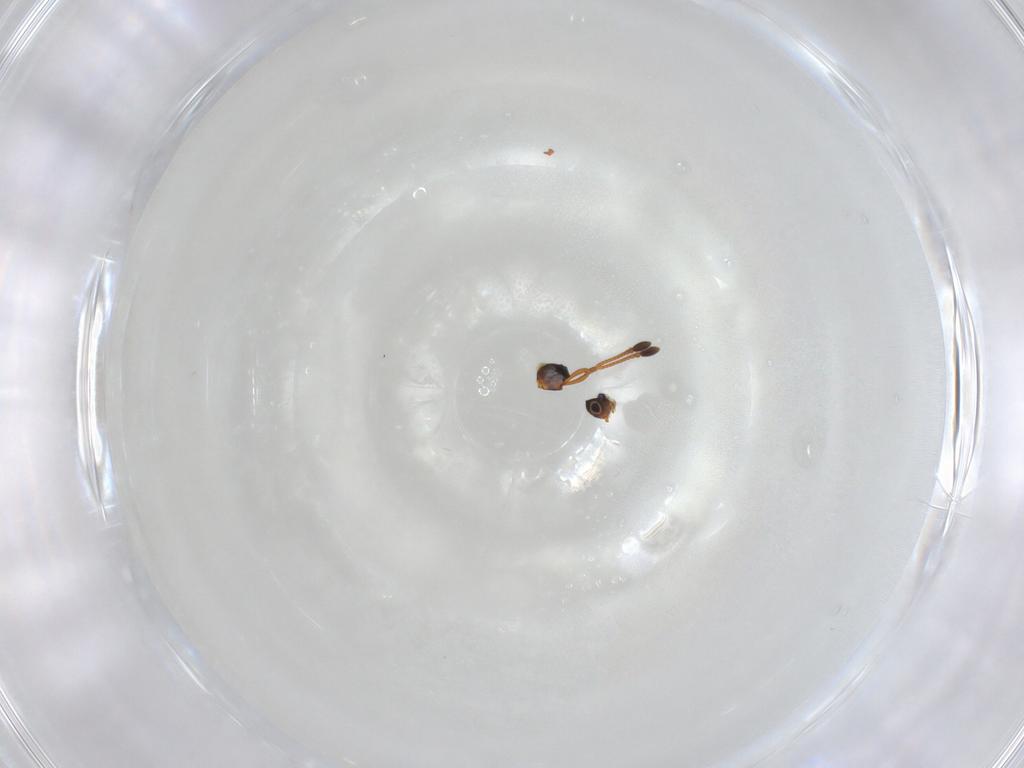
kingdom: Animalia
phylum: Arthropoda
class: Insecta
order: Hymenoptera
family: Diapriidae
